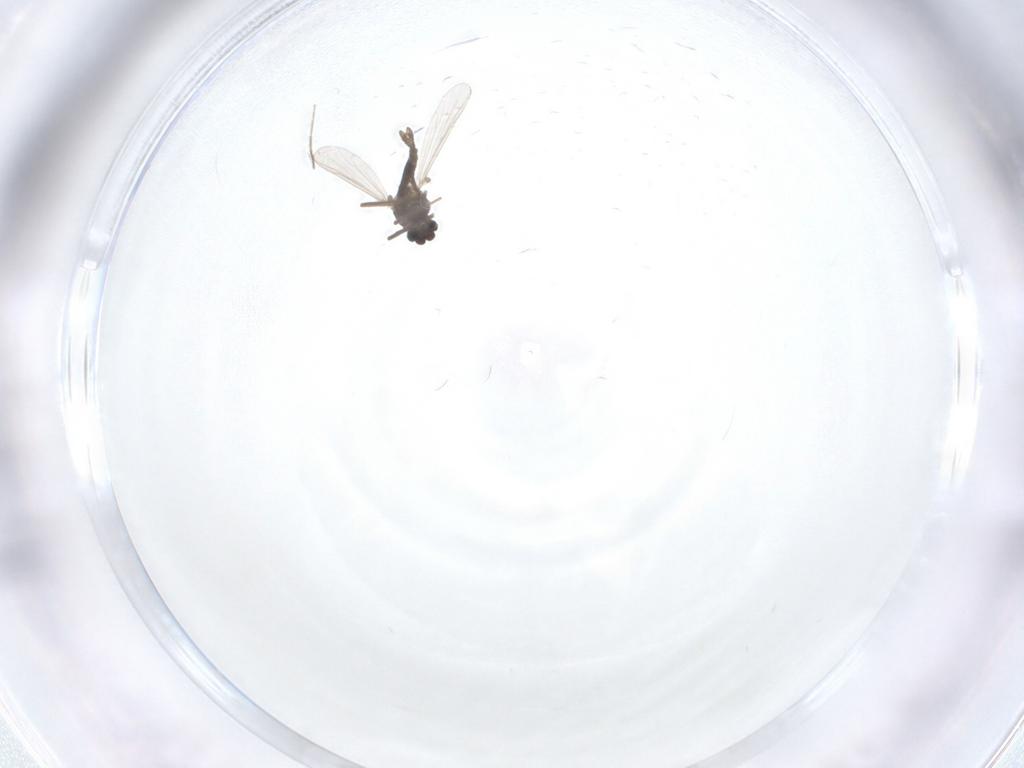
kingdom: Animalia
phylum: Arthropoda
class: Insecta
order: Diptera
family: Chironomidae
